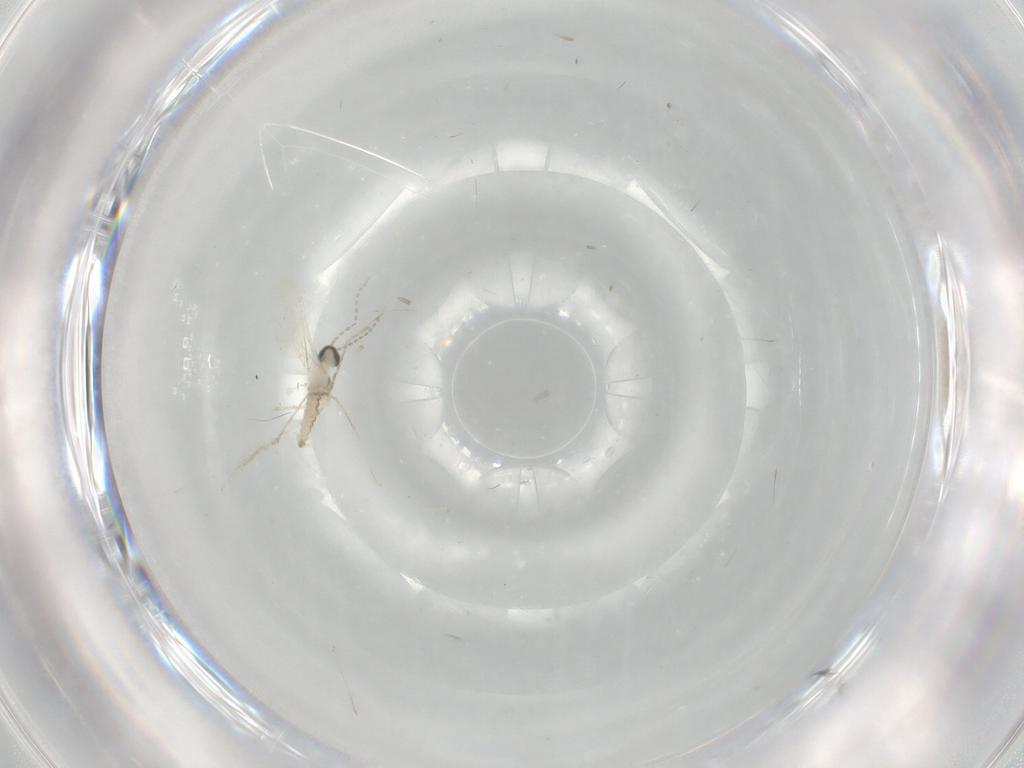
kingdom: Animalia
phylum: Arthropoda
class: Insecta
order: Diptera
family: Cecidomyiidae
